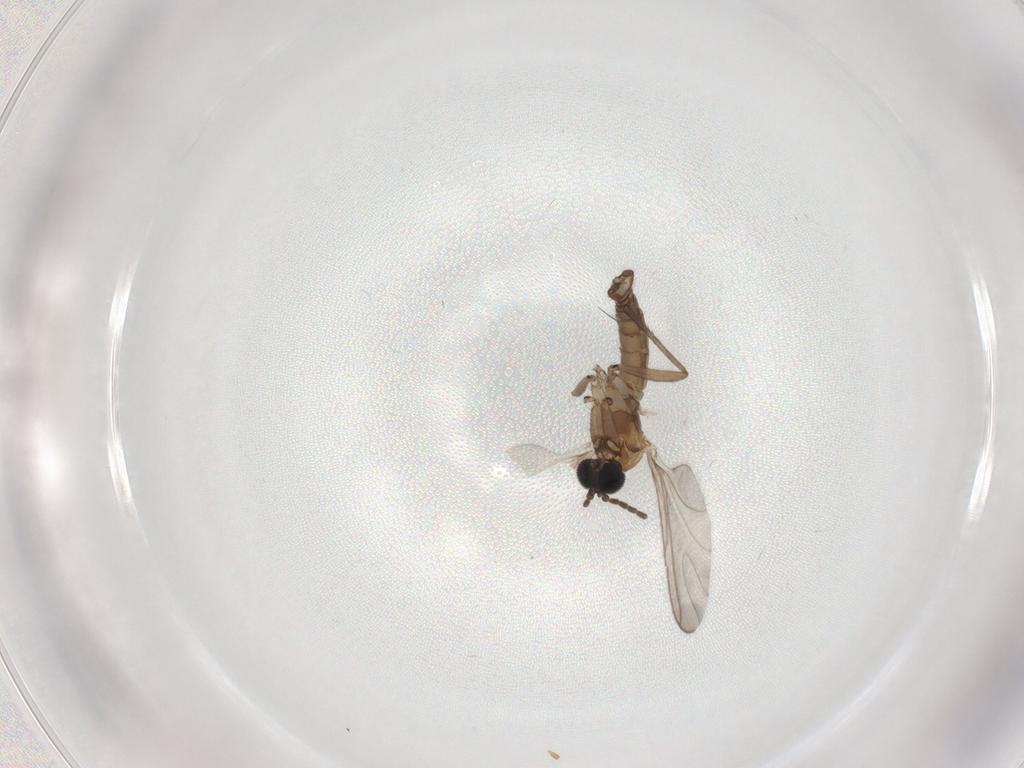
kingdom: Animalia
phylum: Arthropoda
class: Insecta
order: Diptera
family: Sciaridae
